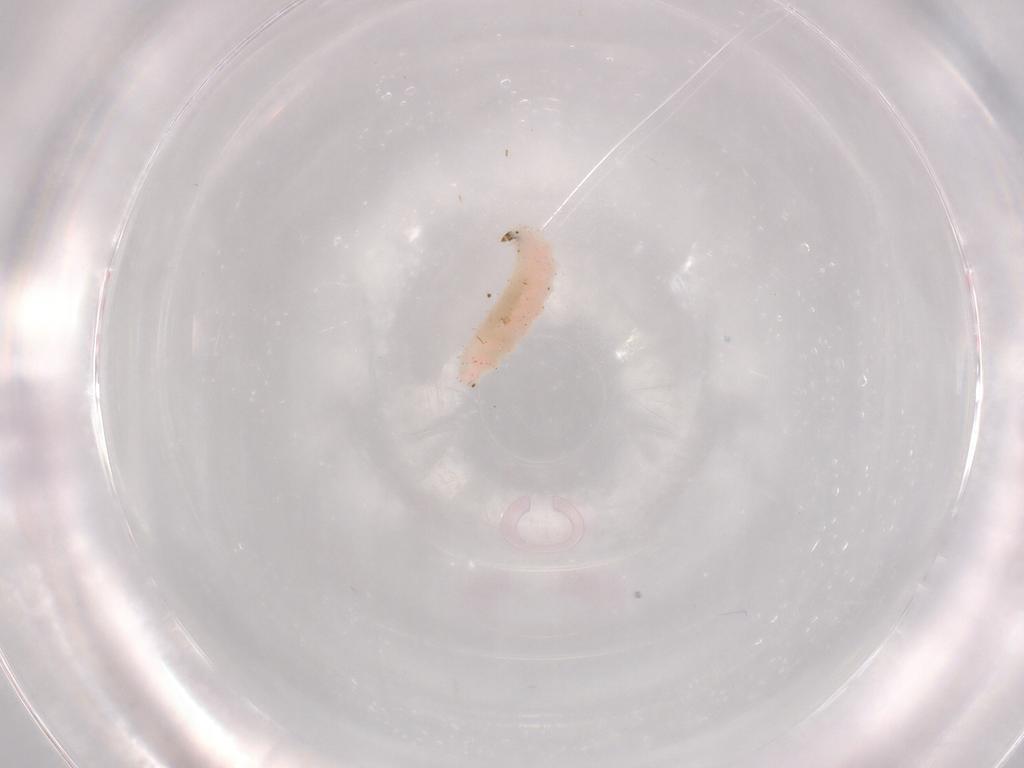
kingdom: Animalia
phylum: Arthropoda
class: Insecta
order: Diptera
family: Cecidomyiidae
